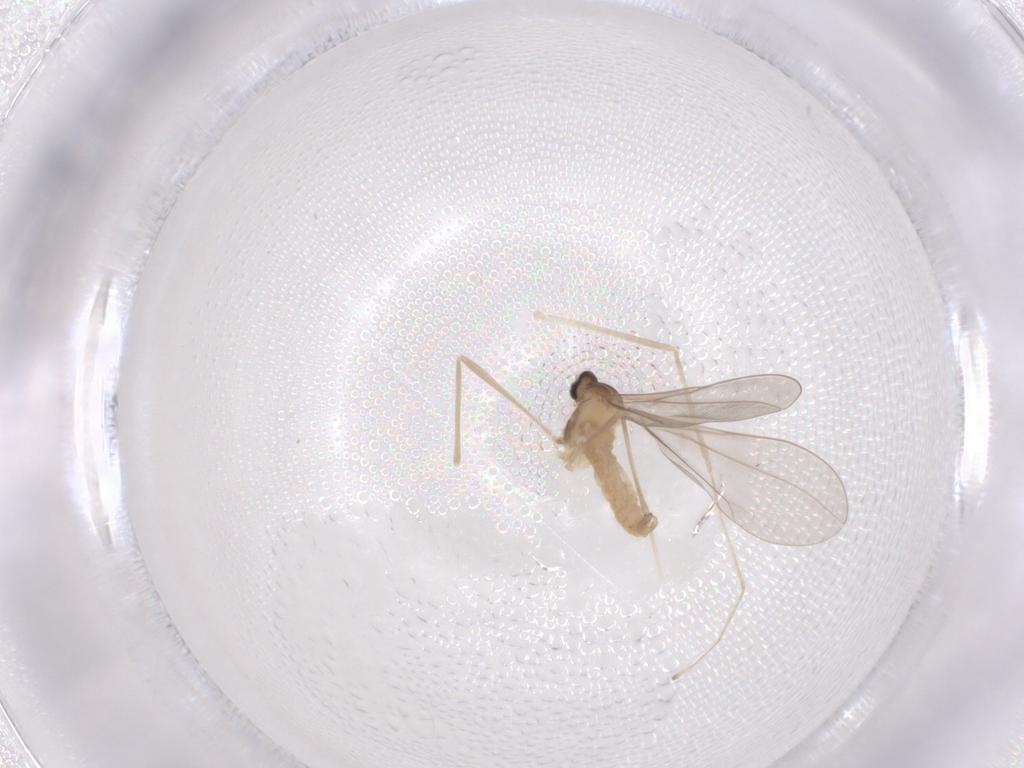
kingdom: Animalia
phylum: Arthropoda
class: Insecta
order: Diptera
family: Cecidomyiidae
